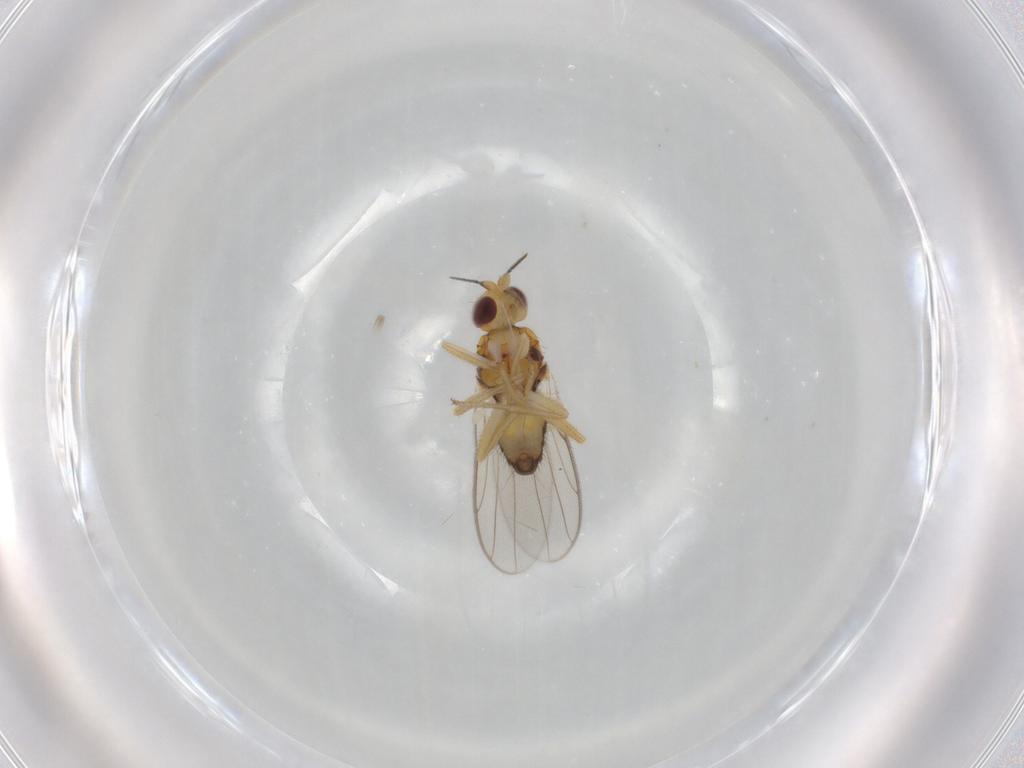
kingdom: Animalia
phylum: Arthropoda
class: Insecta
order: Diptera
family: Chloropidae
